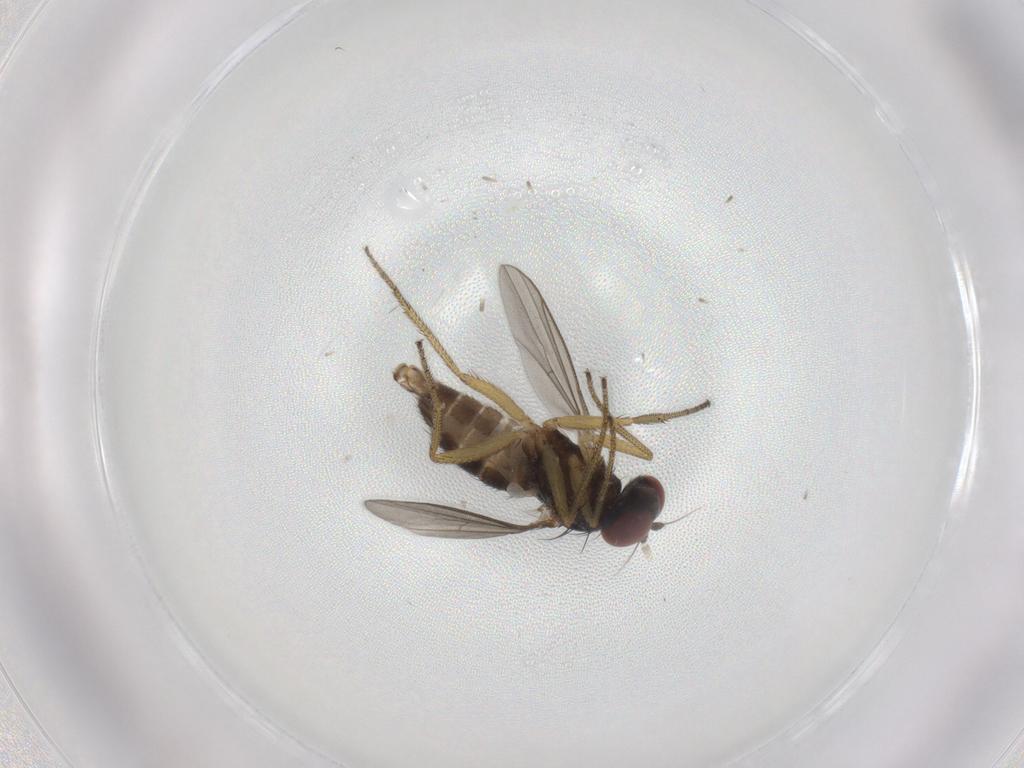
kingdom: Animalia
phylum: Arthropoda
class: Insecta
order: Diptera
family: Dolichopodidae
